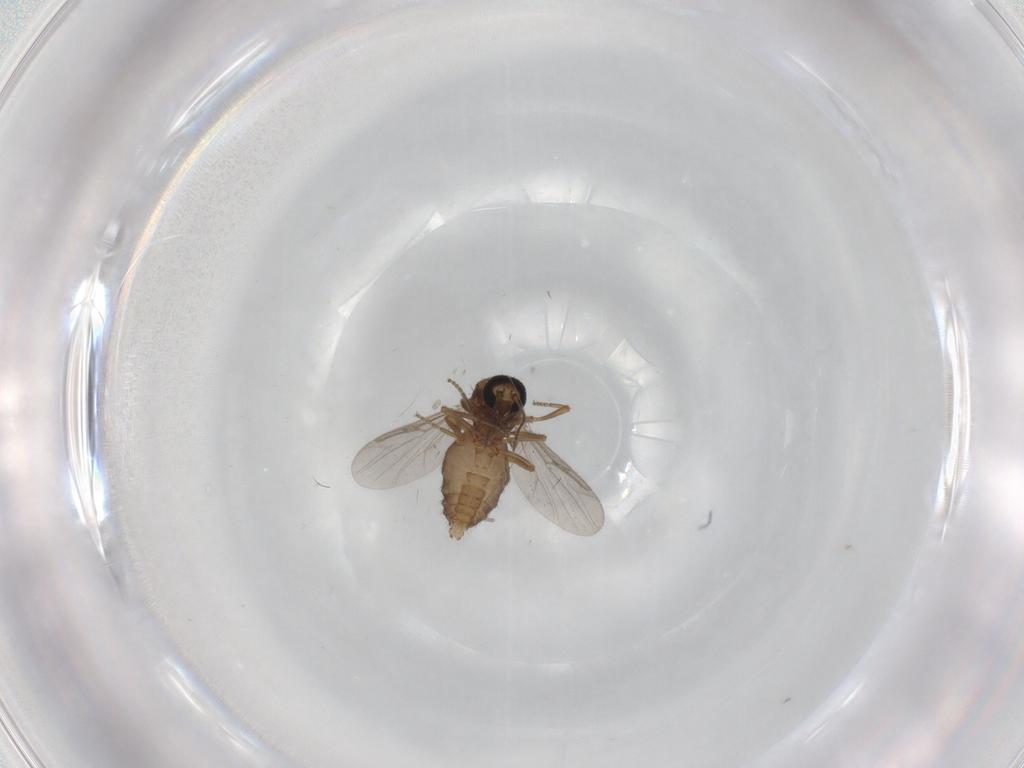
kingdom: Animalia
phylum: Arthropoda
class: Insecta
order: Diptera
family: Ceratopogonidae
